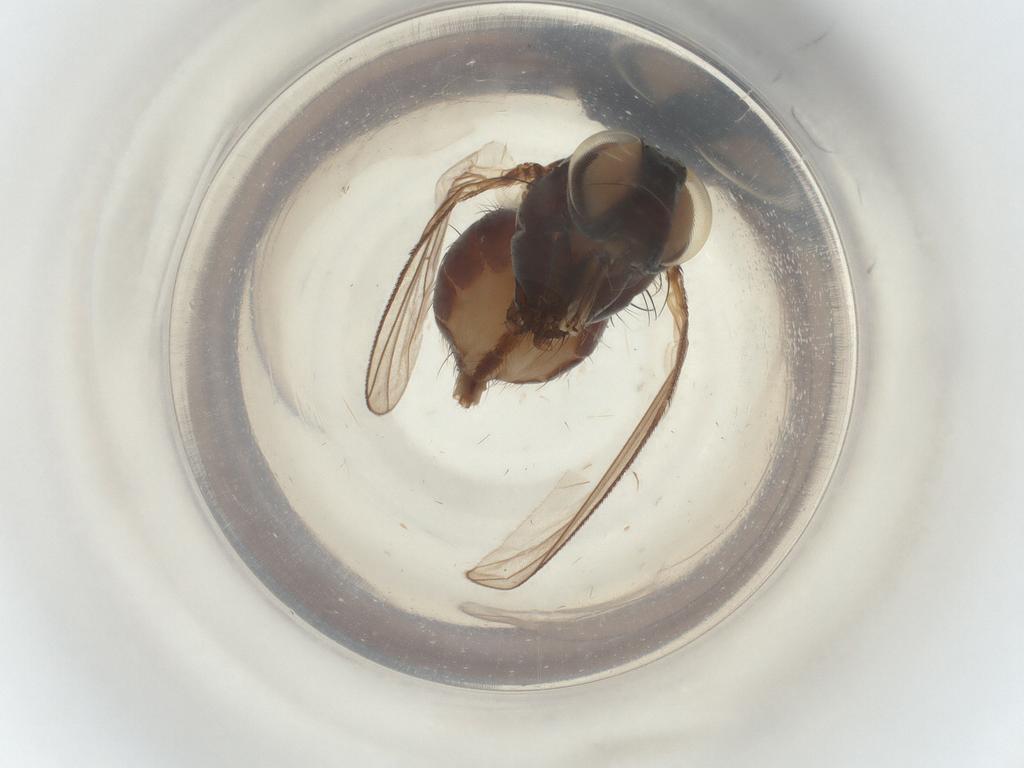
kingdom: Animalia
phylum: Arthropoda
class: Insecta
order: Diptera
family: Muscidae
